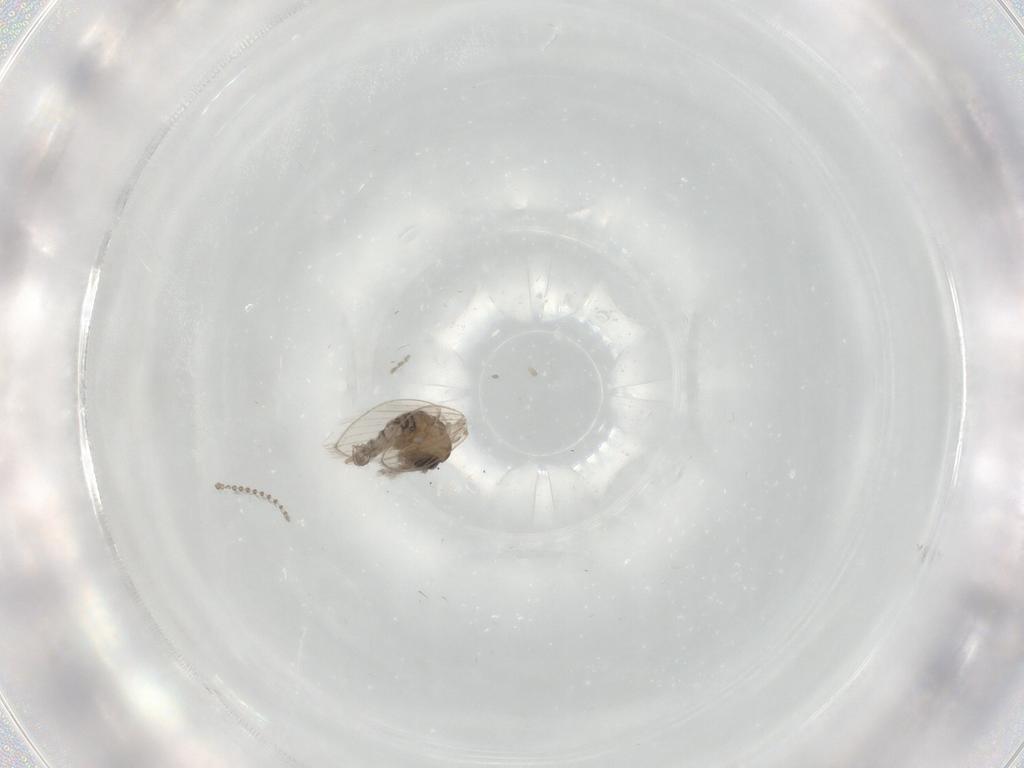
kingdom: Animalia
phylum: Arthropoda
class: Insecta
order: Diptera
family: Psychodidae
